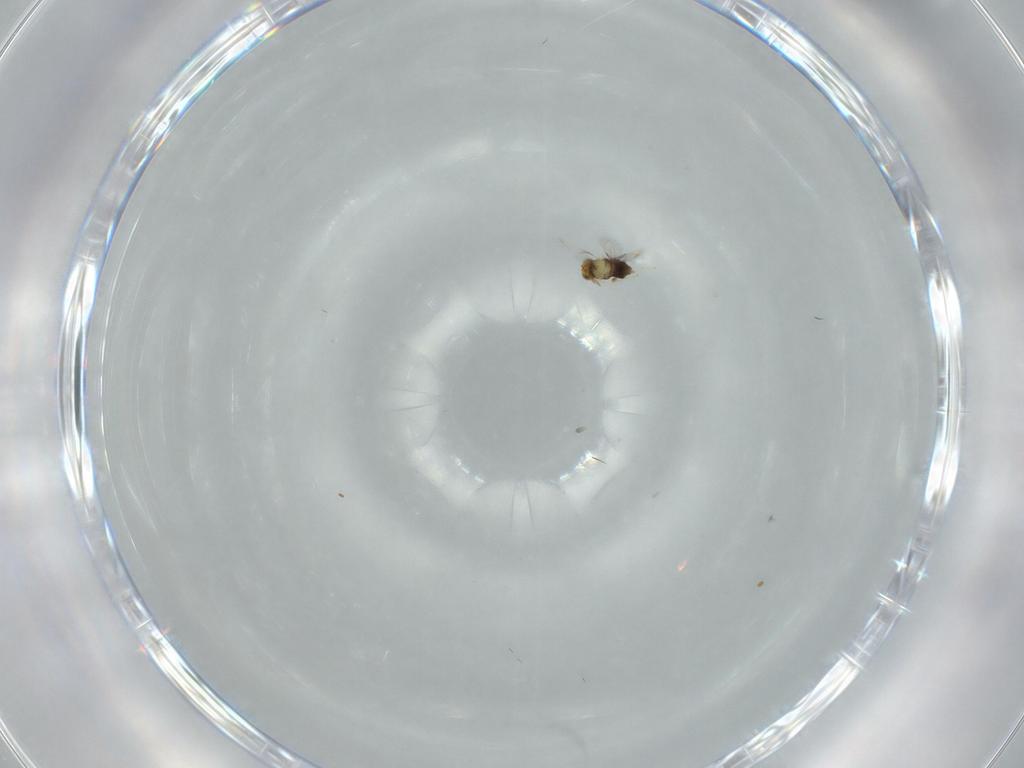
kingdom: Animalia
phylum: Arthropoda
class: Insecta
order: Hymenoptera
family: Aphelinidae
